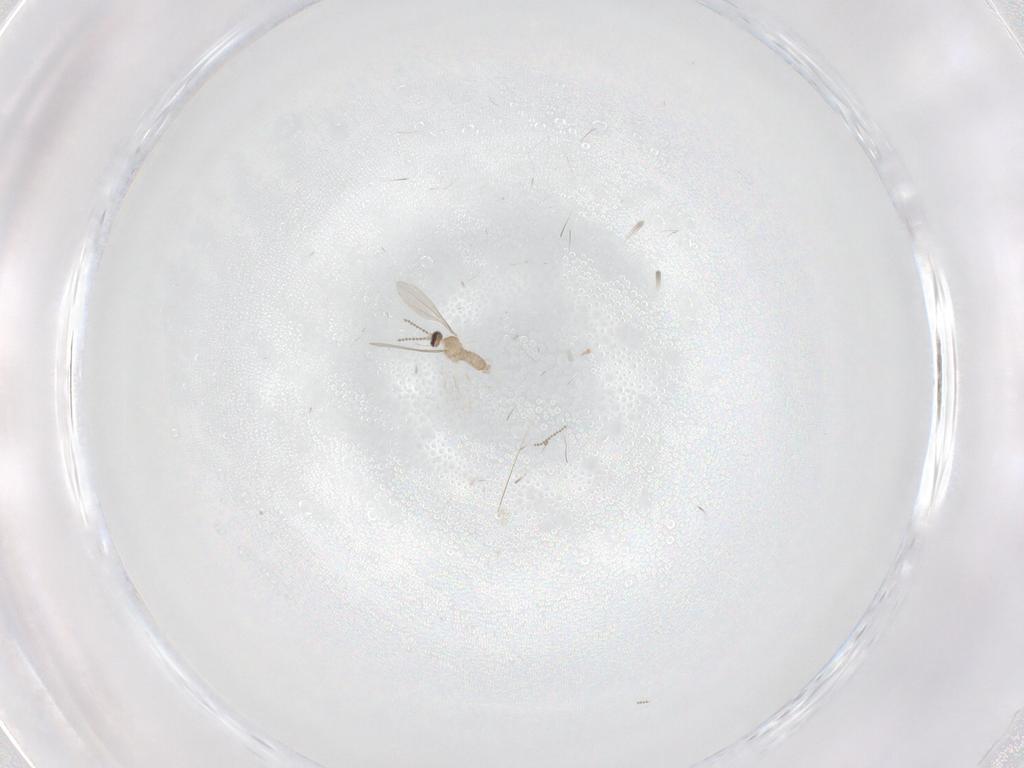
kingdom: Animalia
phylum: Arthropoda
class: Insecta
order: Diptera
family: Cecidomyiidae
